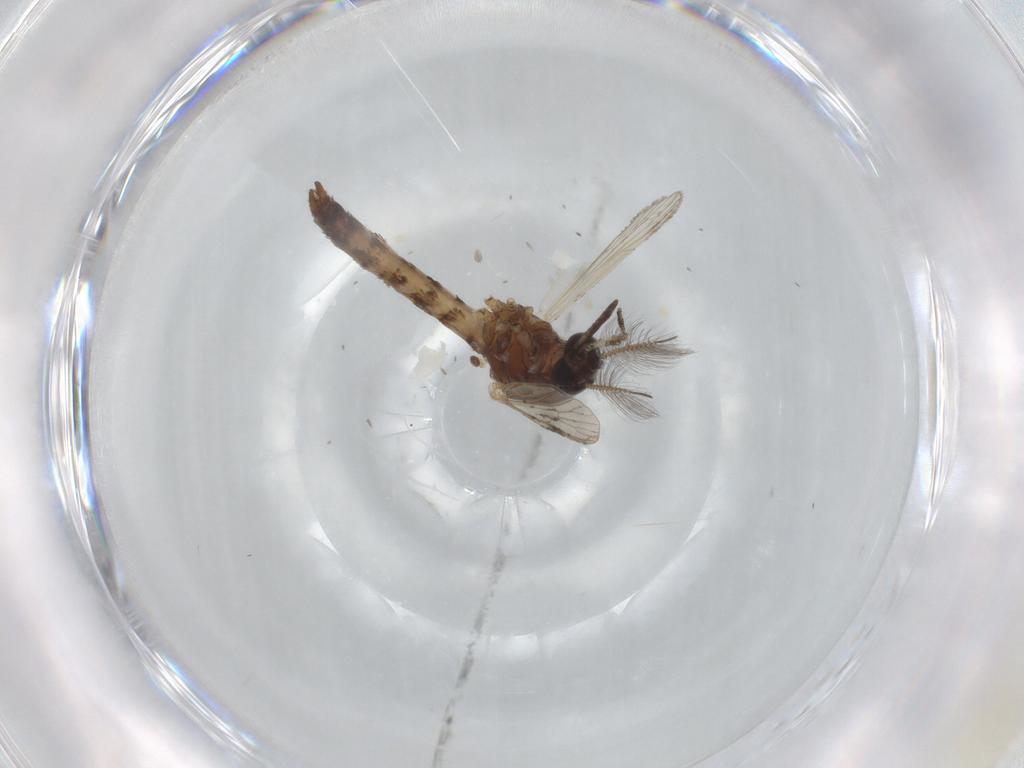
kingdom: Animalia
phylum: Arthropoda
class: Insecta
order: Diptera
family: Culicidae
